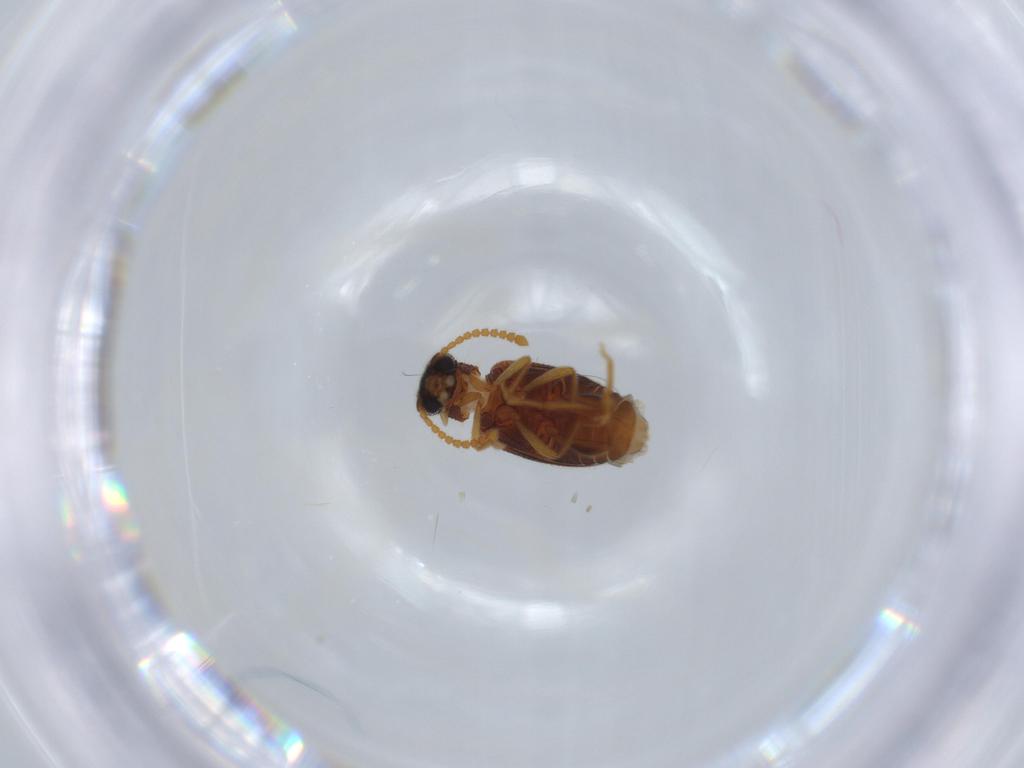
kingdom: Animalia
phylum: Arthropoda
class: Insecta
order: Coleoptera
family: Aderidae
